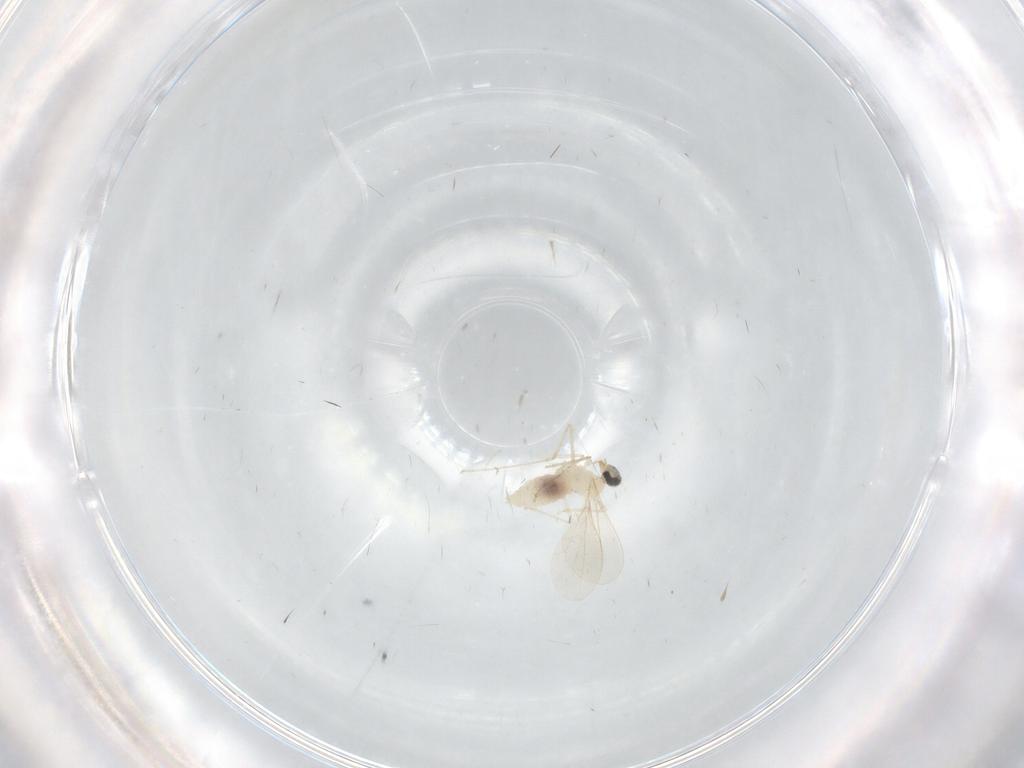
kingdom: Animalia
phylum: Arthropoda
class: Insecta
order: Diptera
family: Cecidomyiidae
